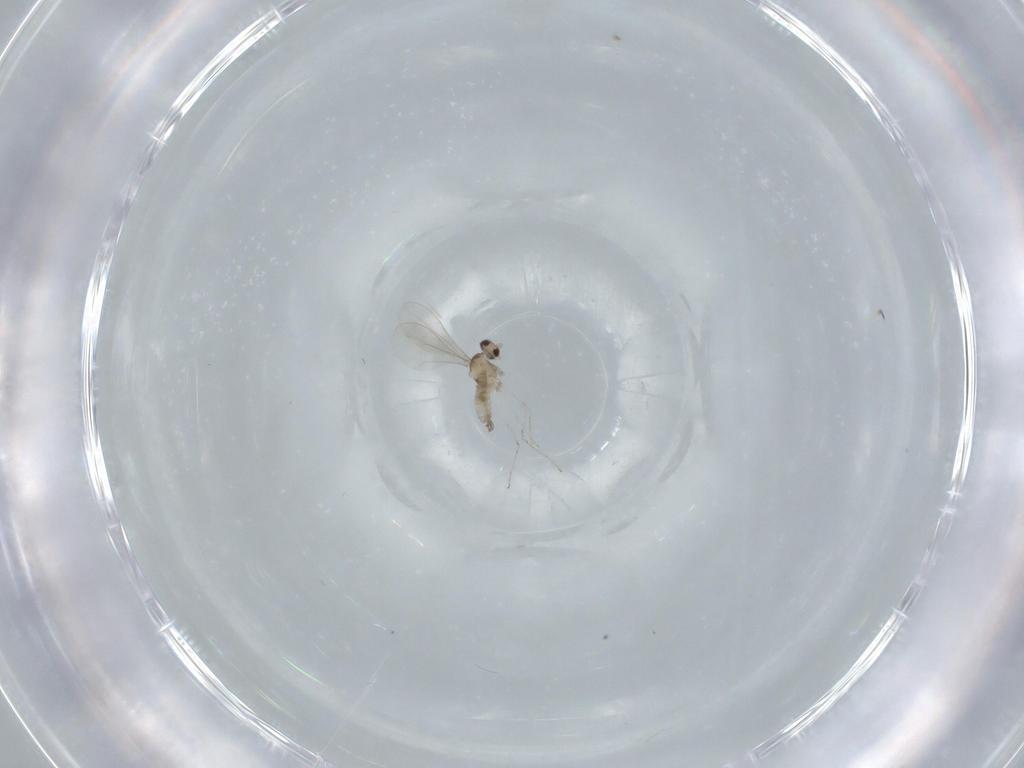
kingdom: Animalia
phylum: Arthropoda
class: Insecta
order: Diptera
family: Cecidomyiidae
